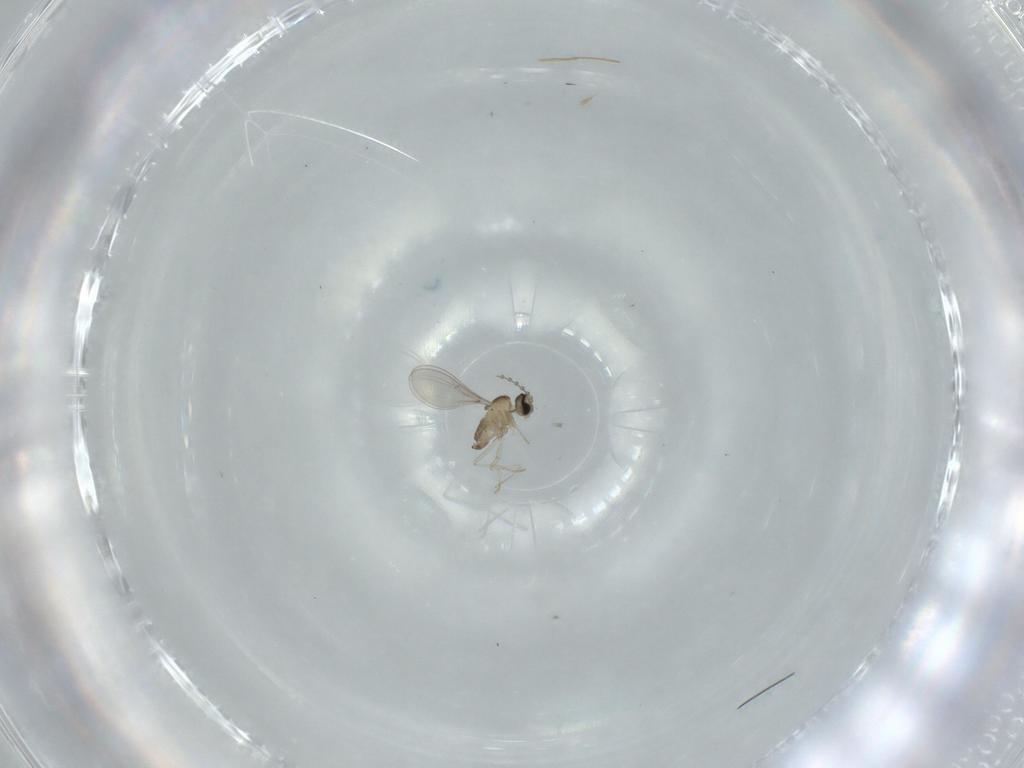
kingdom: Animalia
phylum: Arthropoda
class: Insecta
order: Diptera
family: Cecidomyiidae
